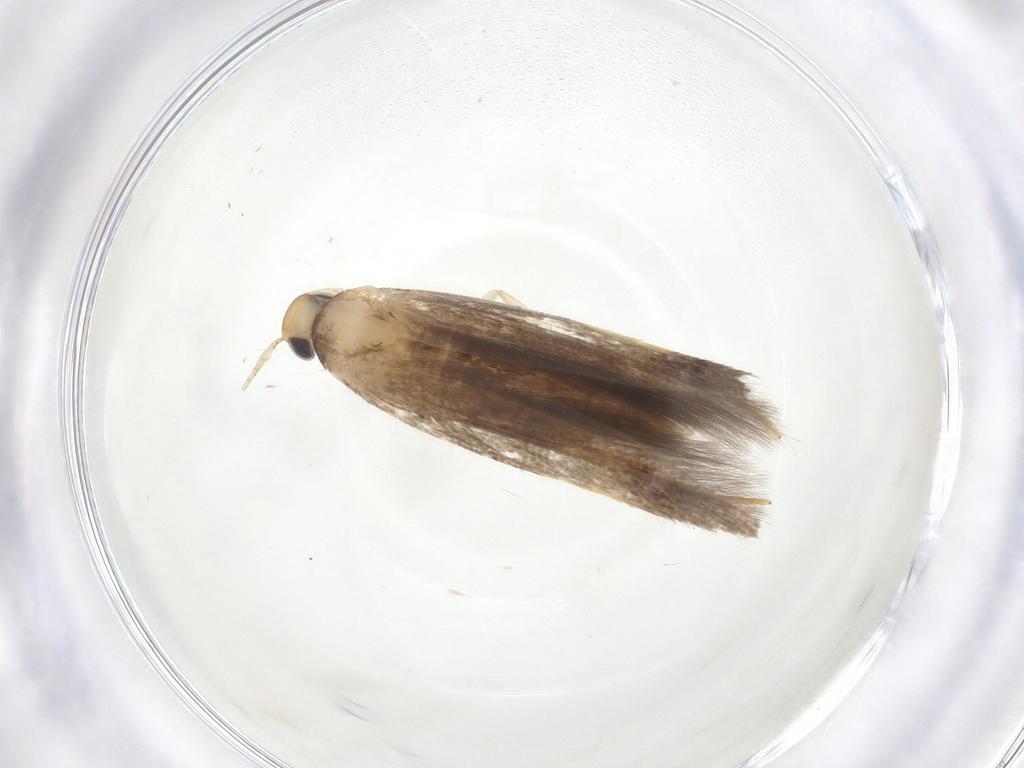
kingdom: Animalia
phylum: Arthropoda
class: Insecta
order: Lepidoptera
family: Cosmopterigidae
